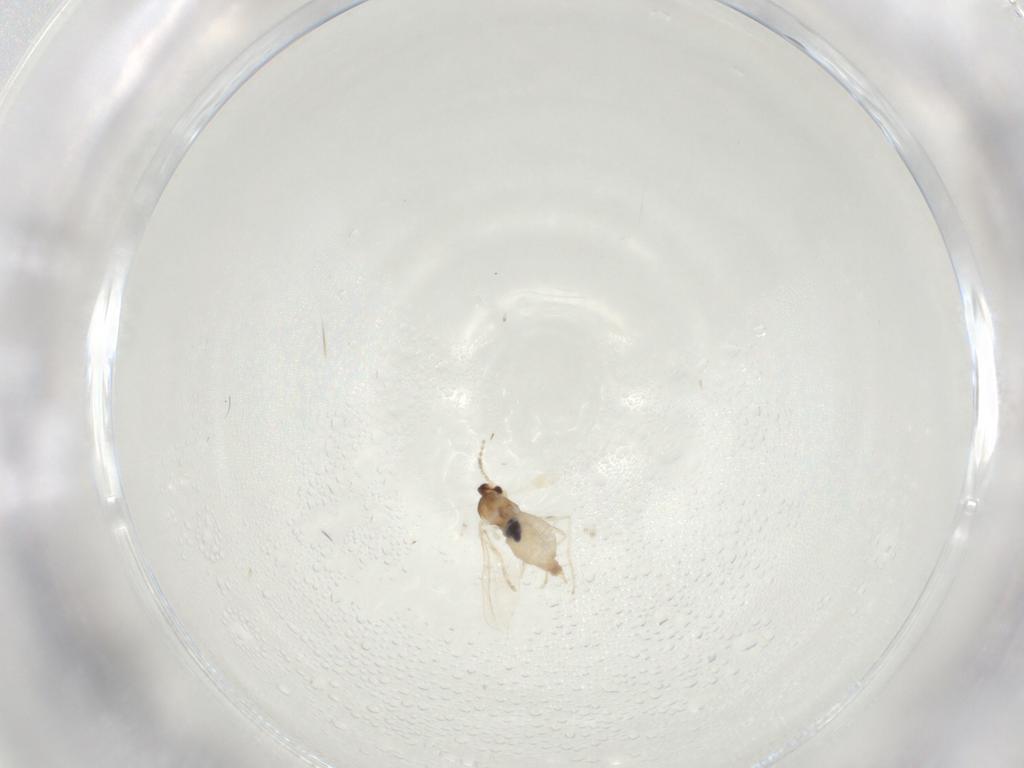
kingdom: Animalia
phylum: Arthropoda
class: Insecta
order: Diptera
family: Cecidomyiidae
